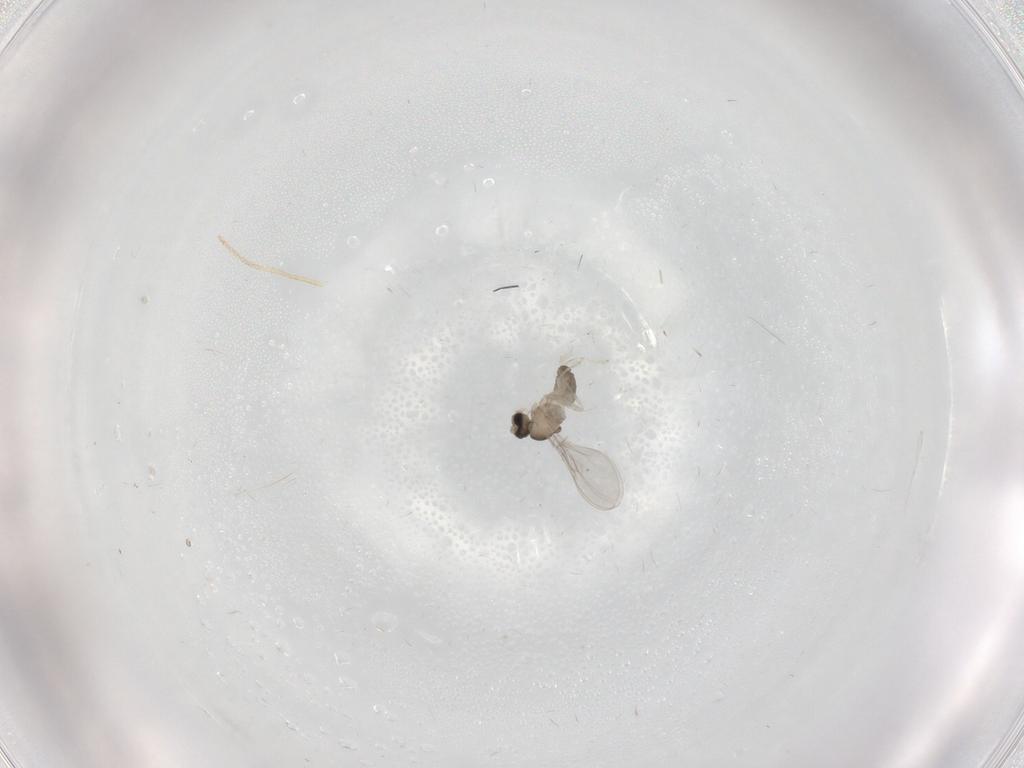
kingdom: Animalia
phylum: Arthropoda
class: Insecta
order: Diptera
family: Cecidomyiidae
